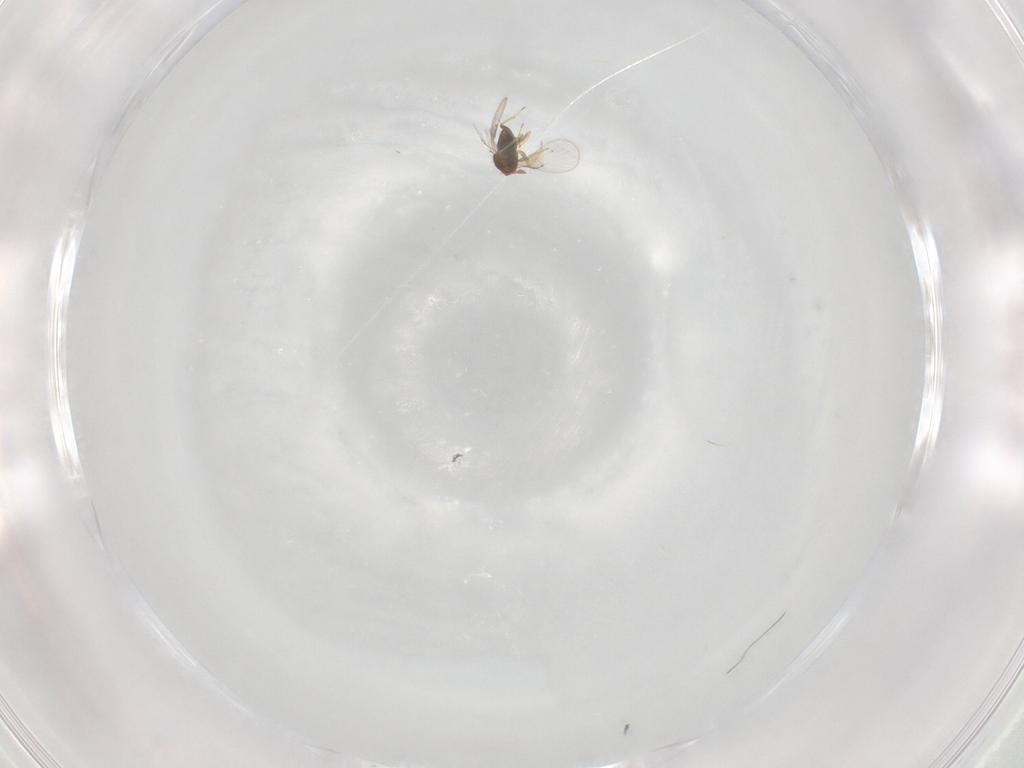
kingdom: Animalia
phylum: Arthropoda
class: Insecta
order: Hymenoptera
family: Trichogrammatidae
